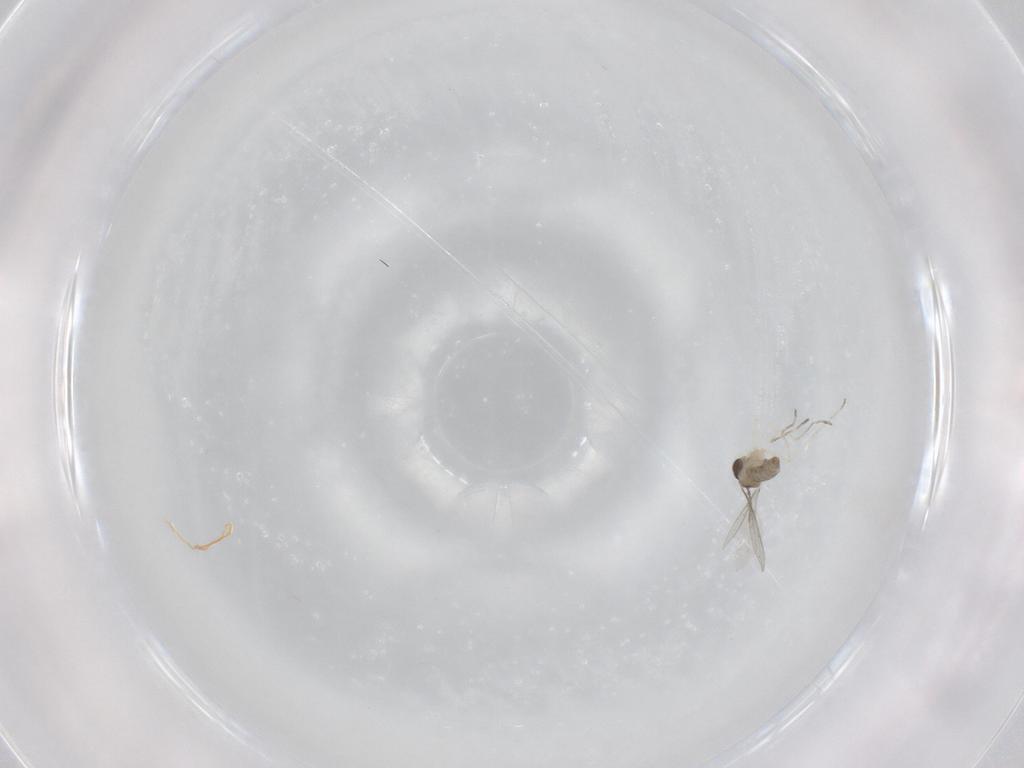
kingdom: Animalia
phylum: Arthropoda
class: Insecta
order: Diptera
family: Cecidomyiidae
